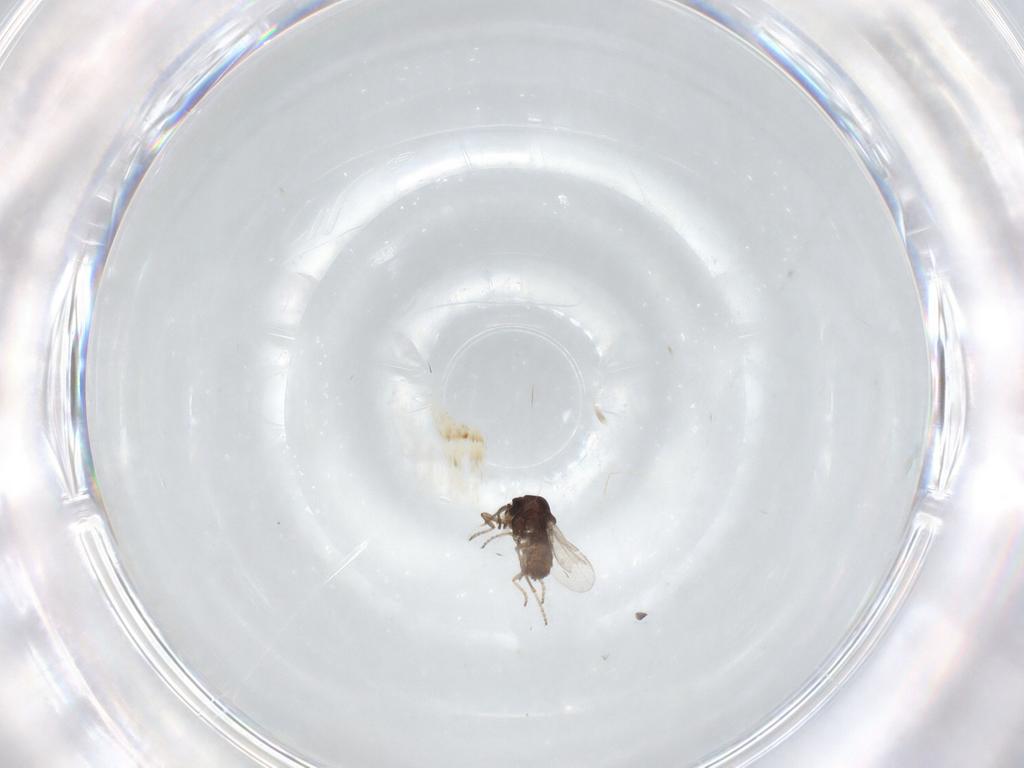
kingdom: Animalia
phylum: Arthropoda
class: Insecta
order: Diptera
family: Ceratopogonidae
